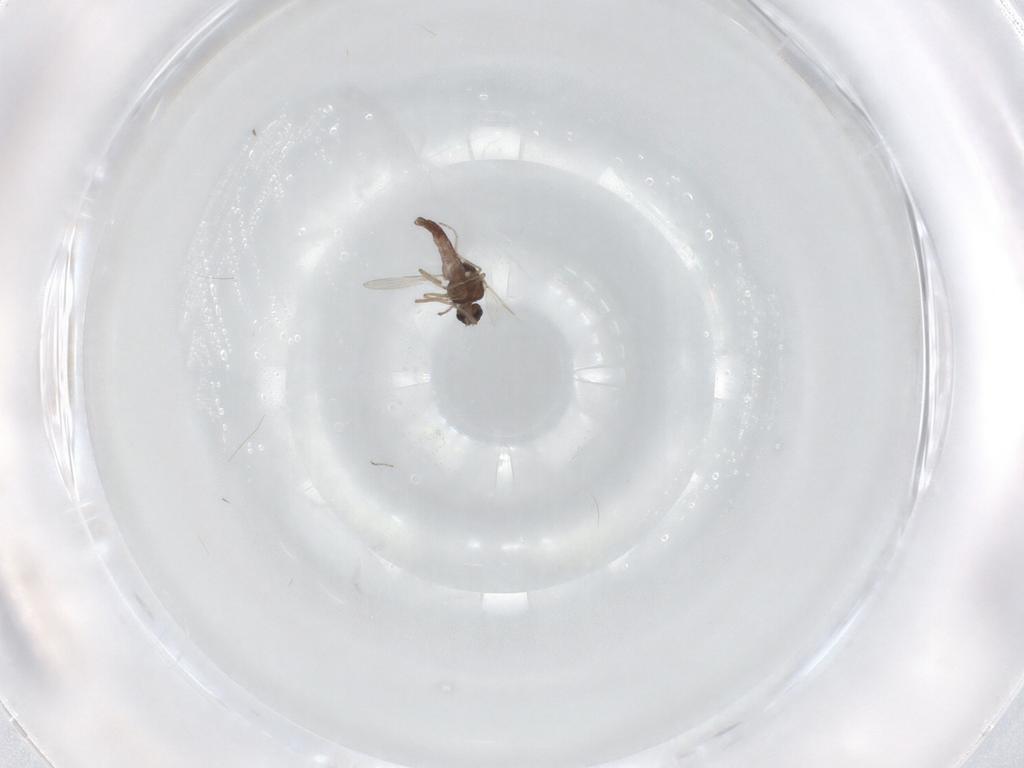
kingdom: Animalia
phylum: Arthropoda
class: Insecta
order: Diptera
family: Ceratopogonidae
